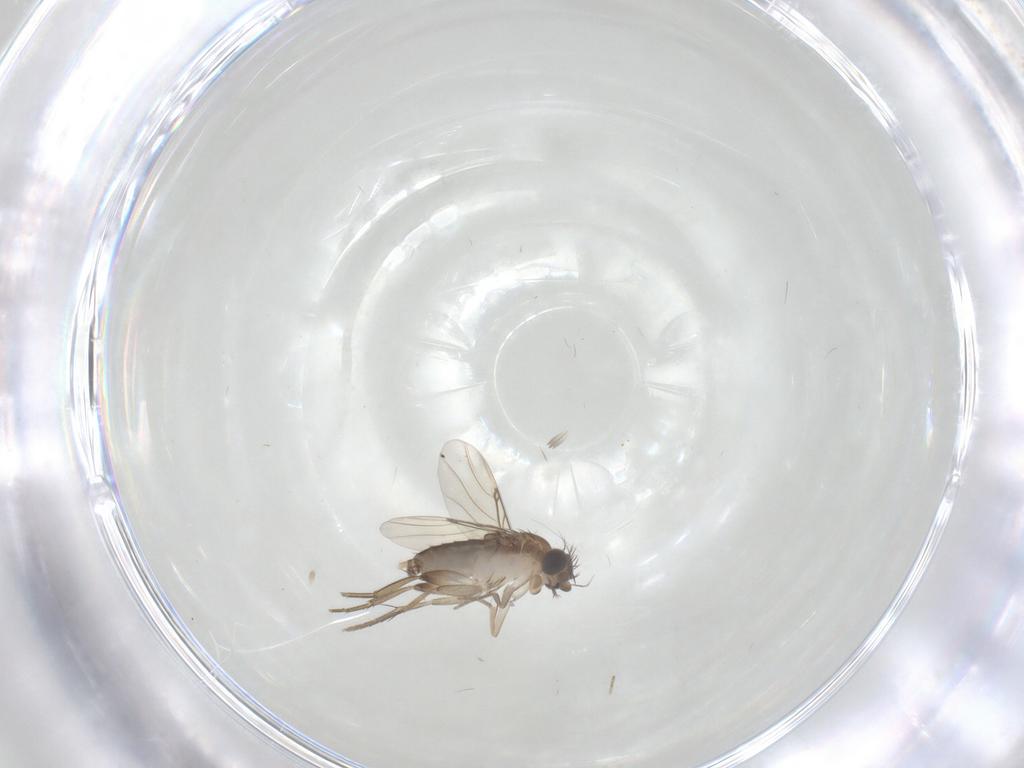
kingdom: Animalia
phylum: Arthropoda
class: Insecta
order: Diptera
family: Phoridae
